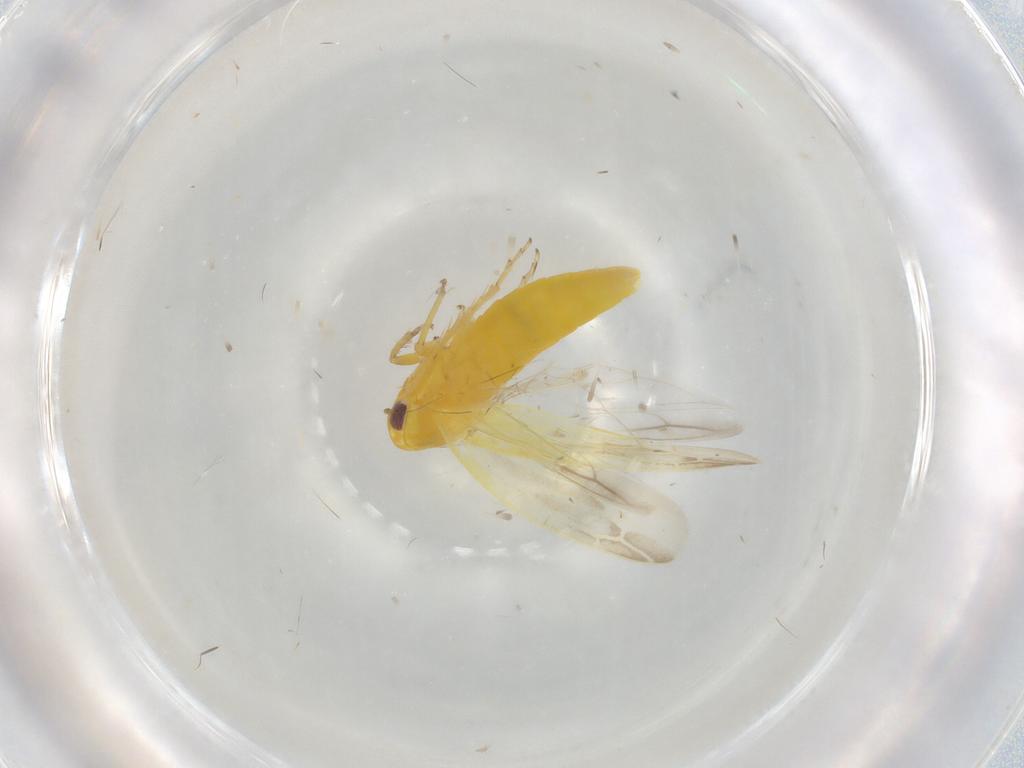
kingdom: Animalia
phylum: Arthropoda
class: Insecta
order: Hemiptera
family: Cicadellidae
